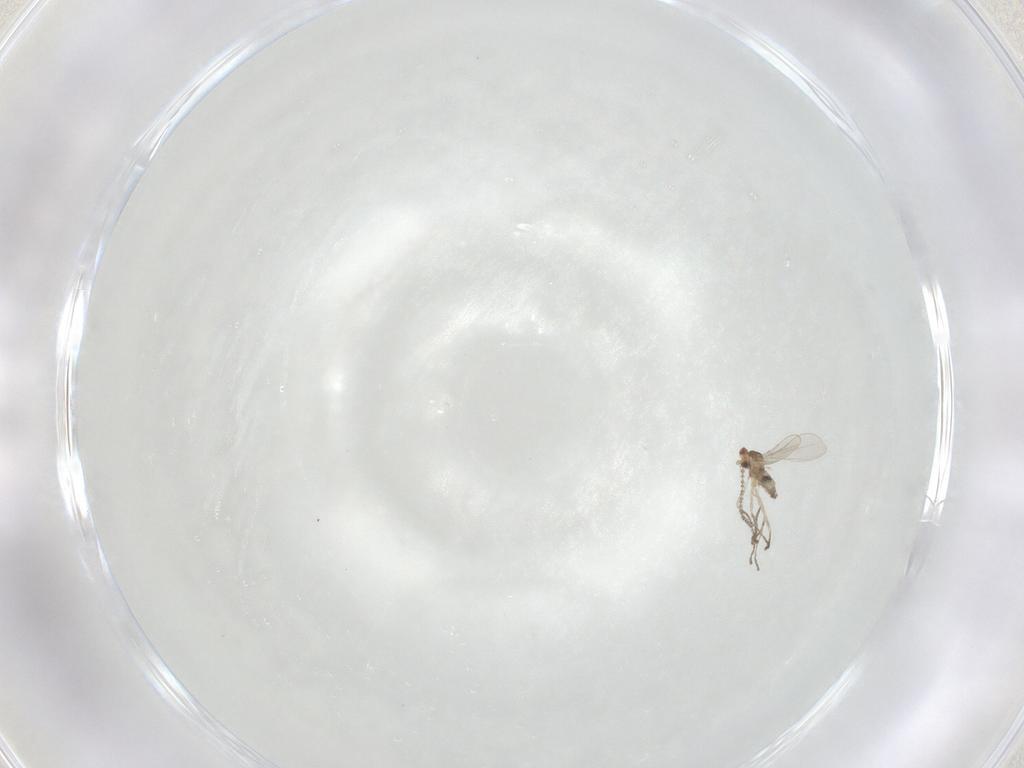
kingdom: Animalia
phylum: Arthropoda
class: Insecta
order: Diptera
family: Cecidomyiidae
